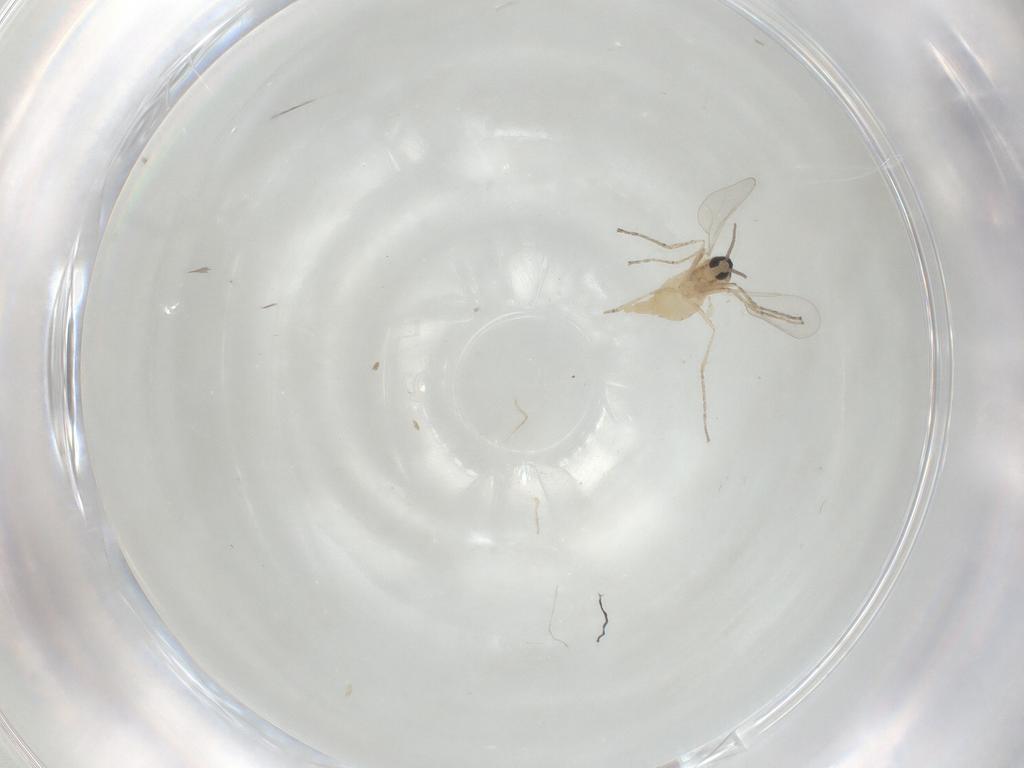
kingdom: Animalia
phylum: Arthropoda
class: Insecta
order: Diptera
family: Cecidomyiidae
